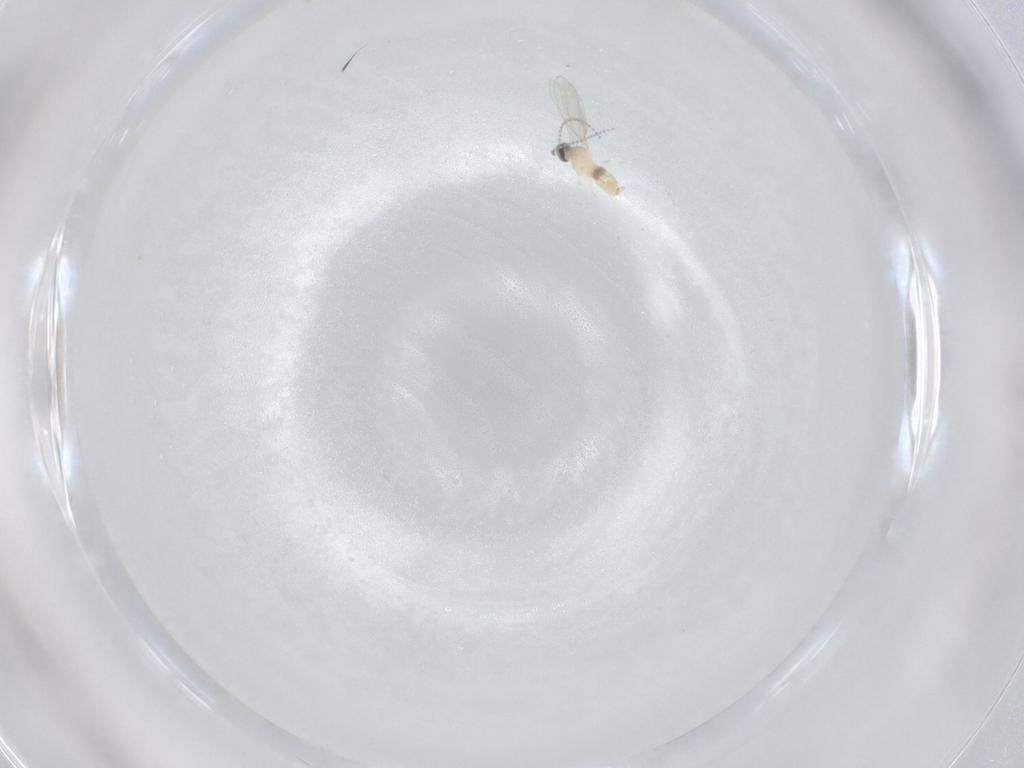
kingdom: Animalia
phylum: Arthropoda
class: Insecta
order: Diptera
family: Cecidomyiidae
